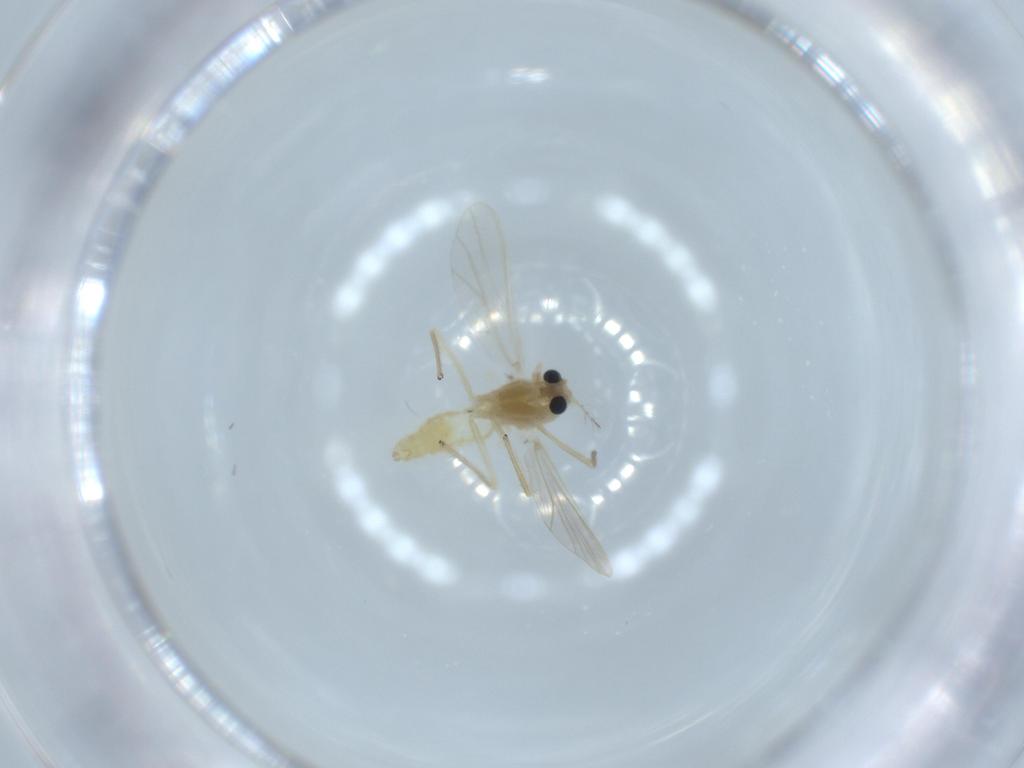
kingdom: Animalia
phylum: Arthropoda
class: Insecta
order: Diptera
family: Chironomidae
